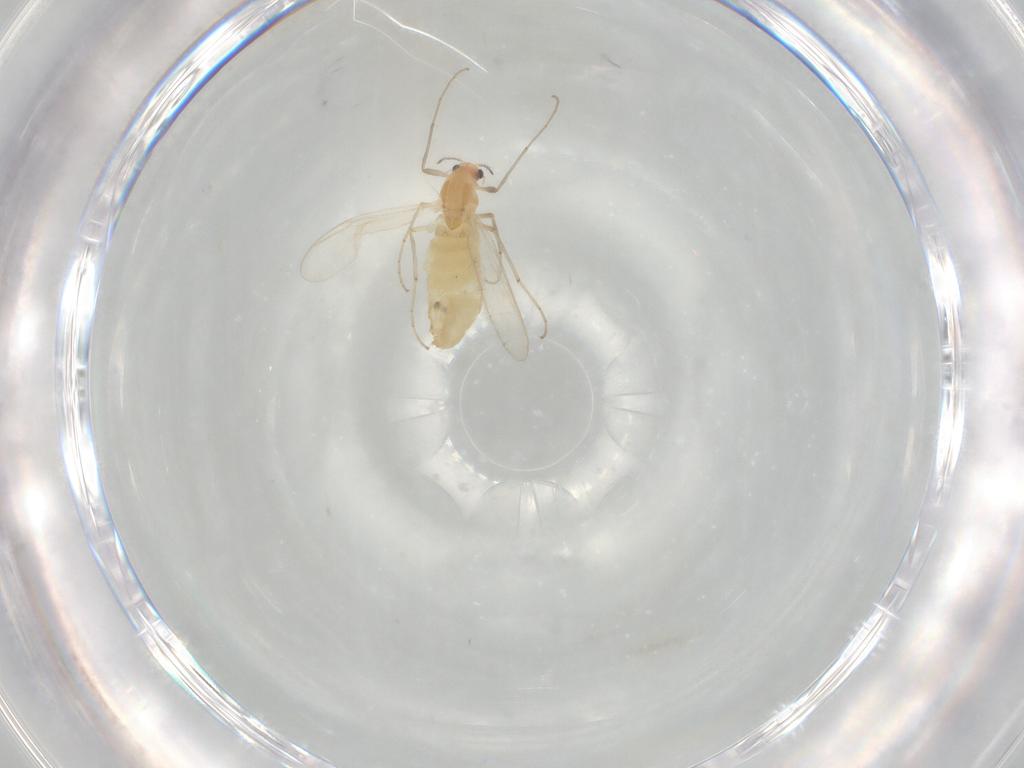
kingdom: Animalia
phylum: Arthropoda
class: Insecta
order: Diptera
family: Chironomidae
